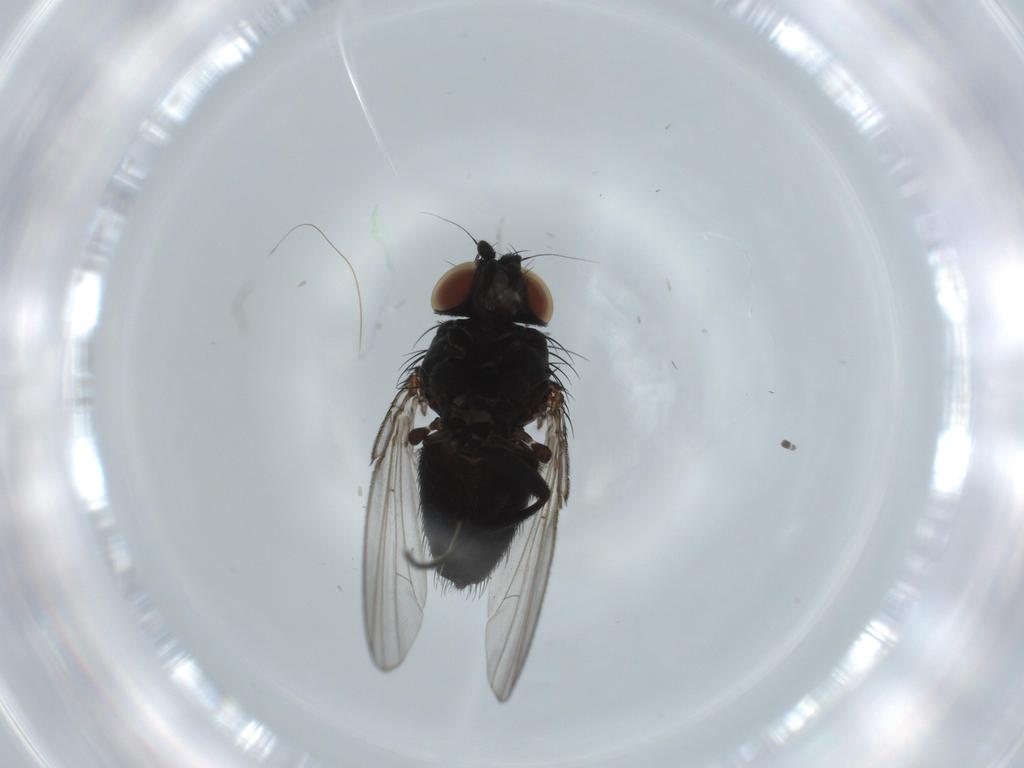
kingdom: Animalia
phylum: Arthropoda
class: Insecta
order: Diptera
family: Milichiidae
